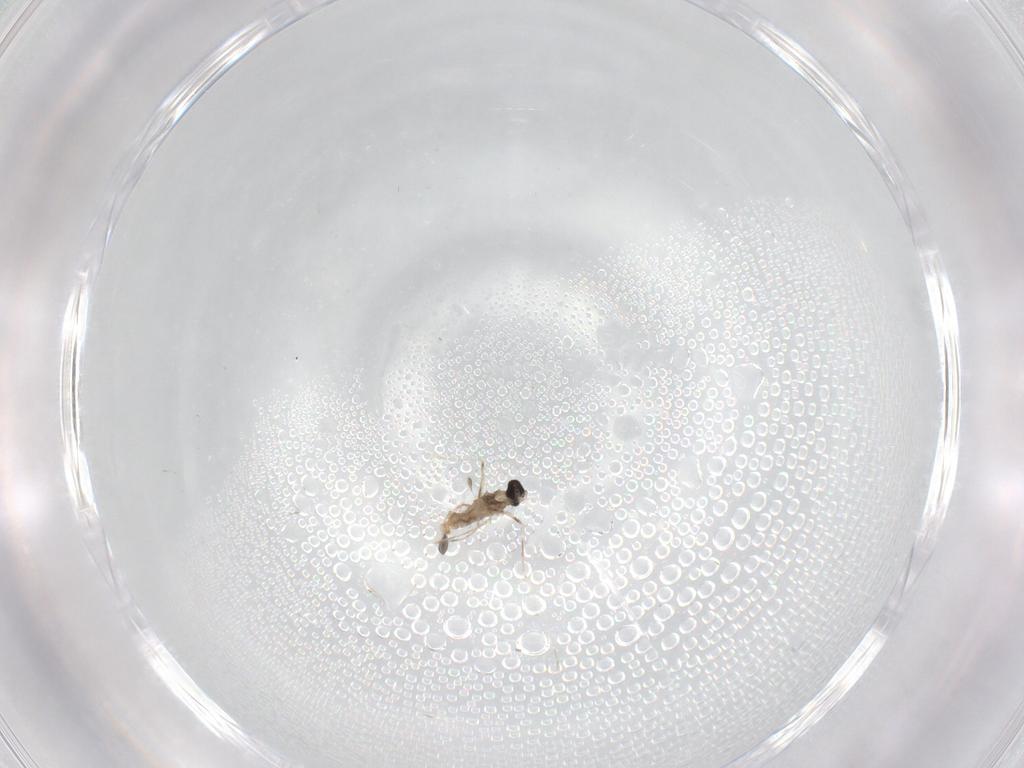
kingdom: Animalia
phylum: Arthropoda
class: Insecta
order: Diptera
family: Cecidomyiidae
